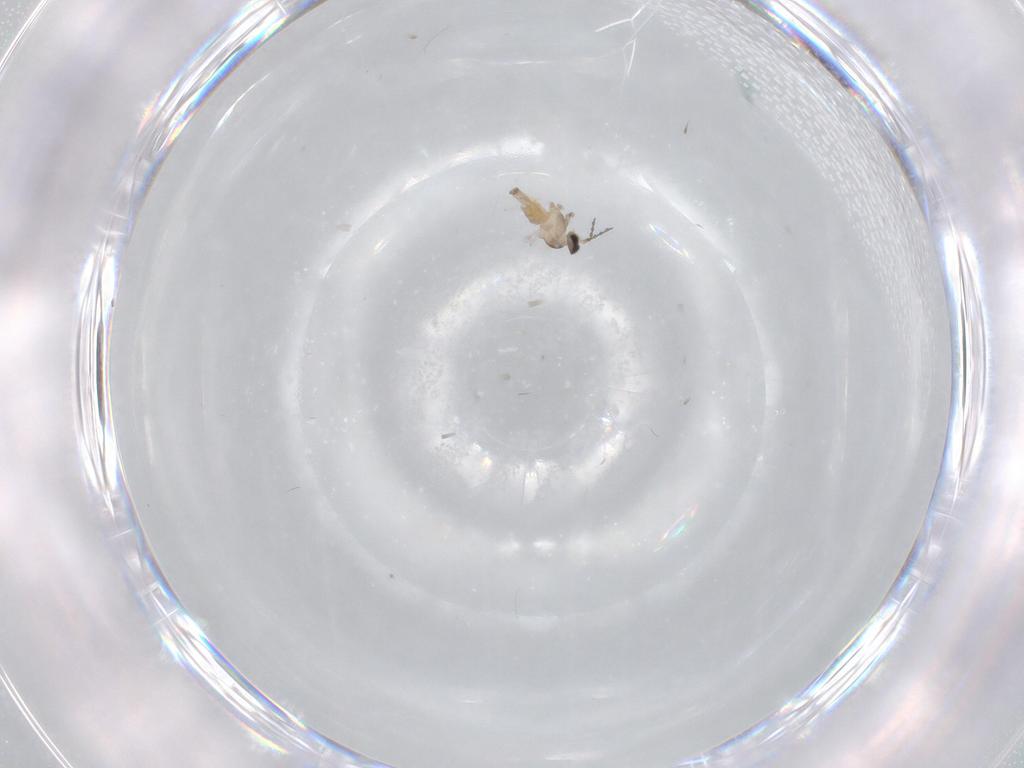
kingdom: Animalia
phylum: Arthropoda
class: Insecta
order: Diptera
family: Cecidomyiidae
